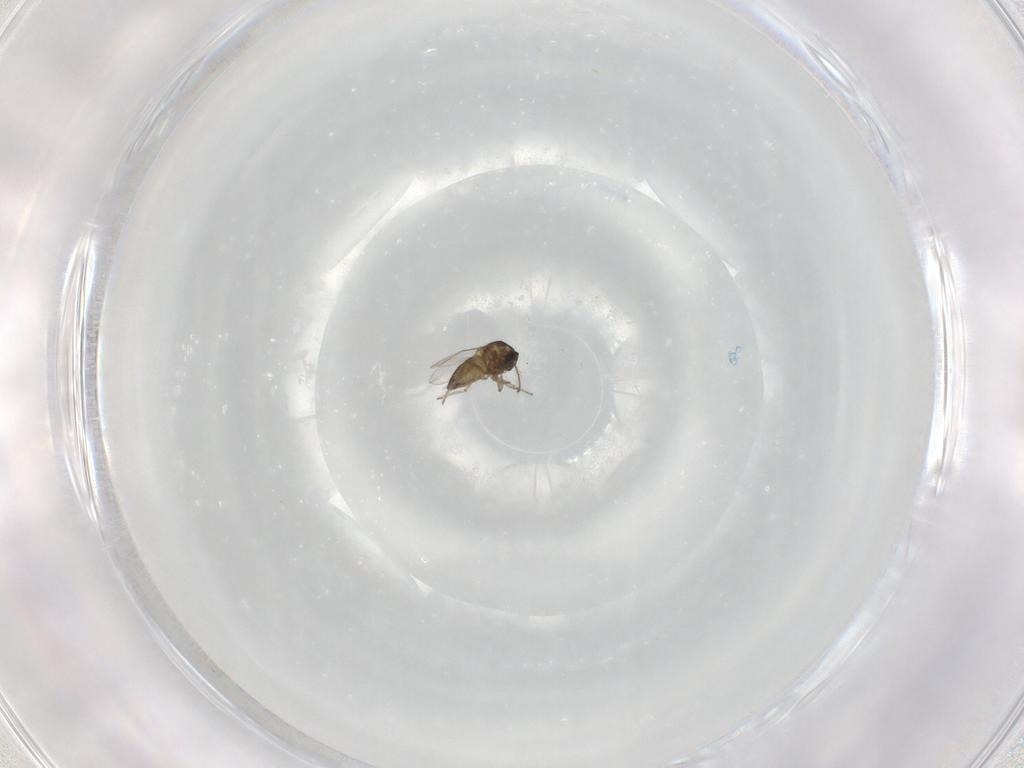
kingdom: Animalia
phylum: Arthropoda
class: Insecta
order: Diptera
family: Ceratopogonidae
